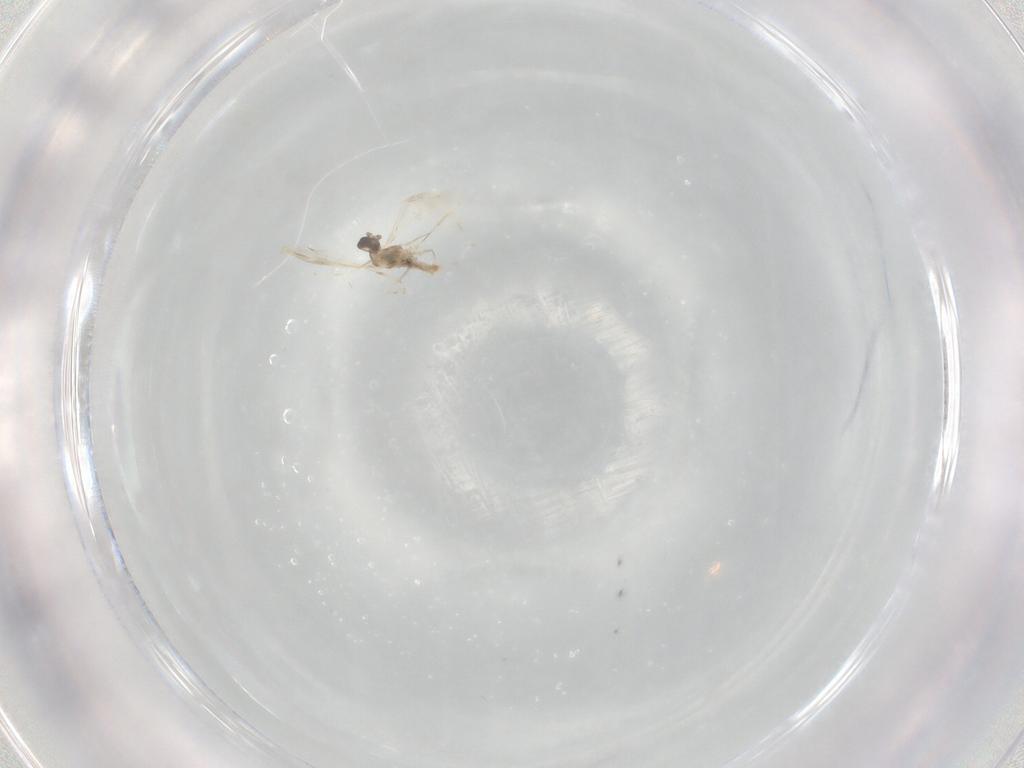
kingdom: Animalia
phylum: Arthropoda
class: Insecta
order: Diptera
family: Cecidomyiidae
